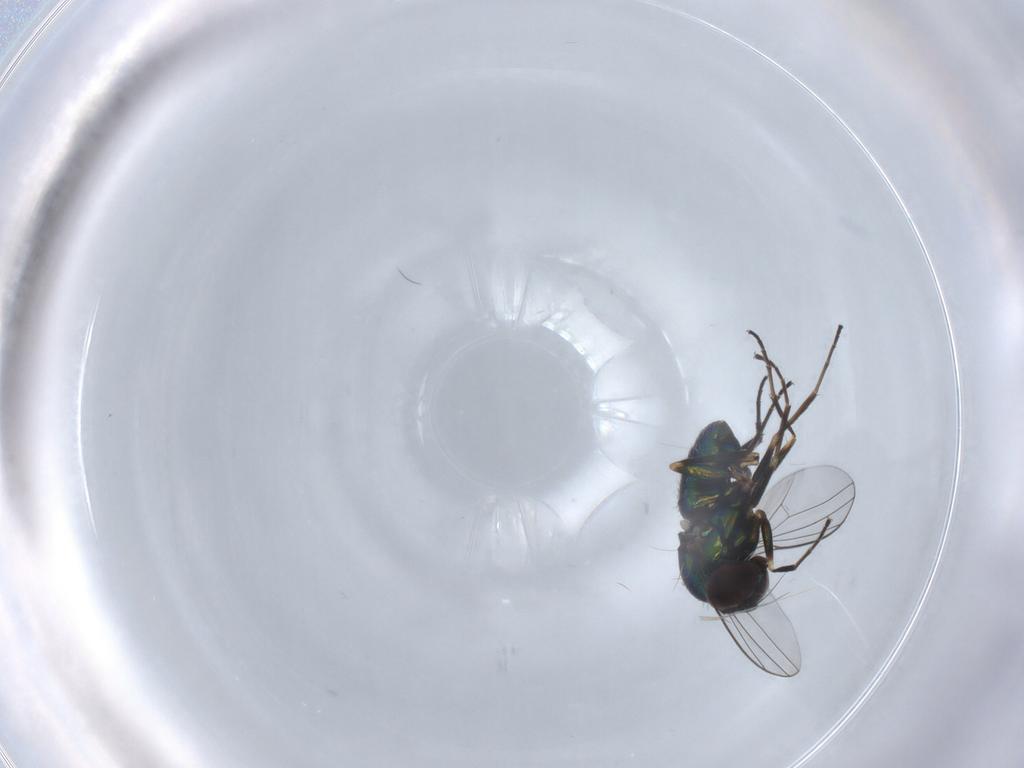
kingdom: Animalia
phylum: Arthropoda
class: Insecta
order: Diptera
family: Dolichopodidae
